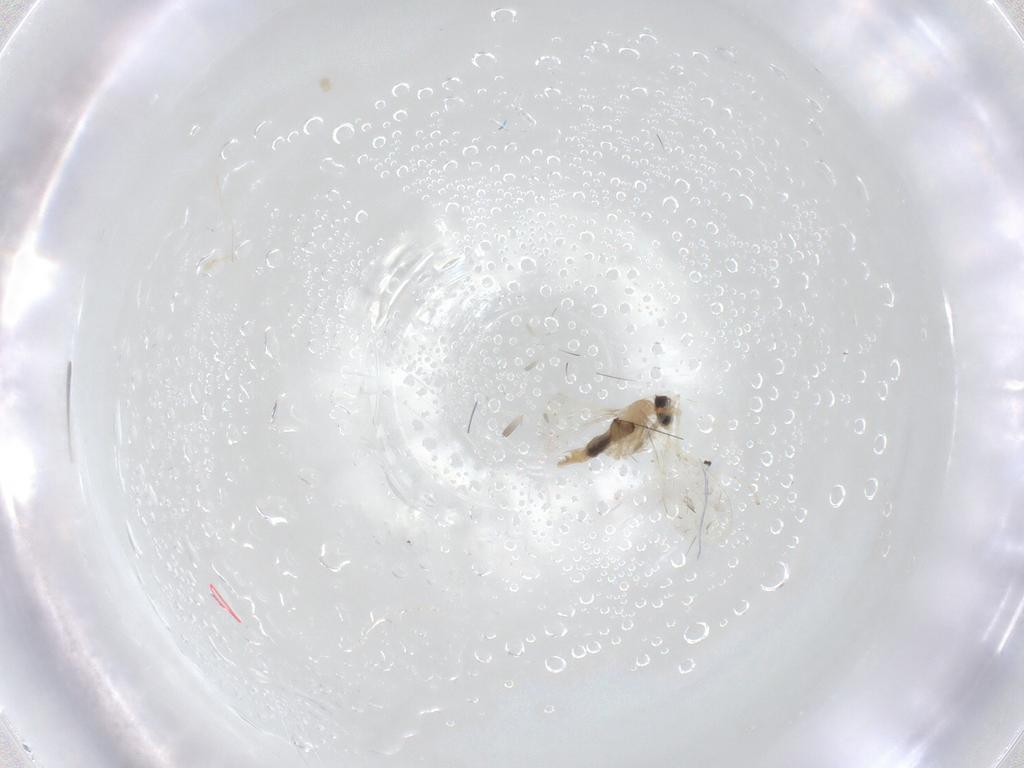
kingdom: Animalia
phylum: Arthropoda
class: Insecta
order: Diptera
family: Cecidomyiidae
